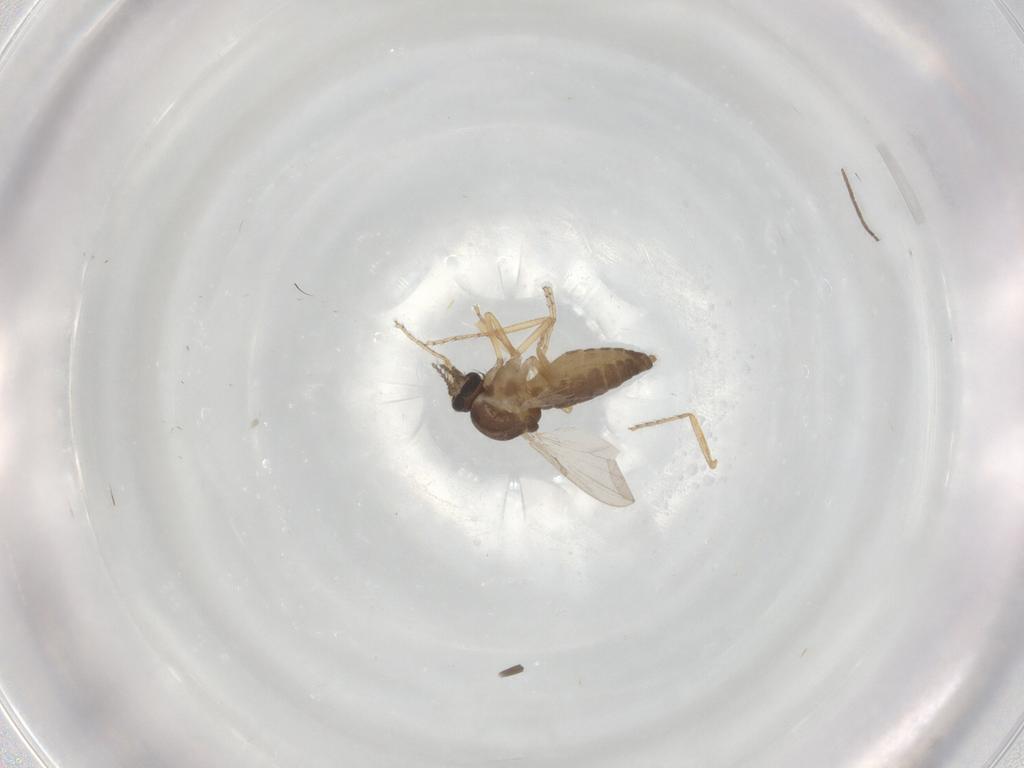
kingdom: Animalia
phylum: Arthropoda
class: Insecta
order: Diptera
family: Ceratopogonidae
